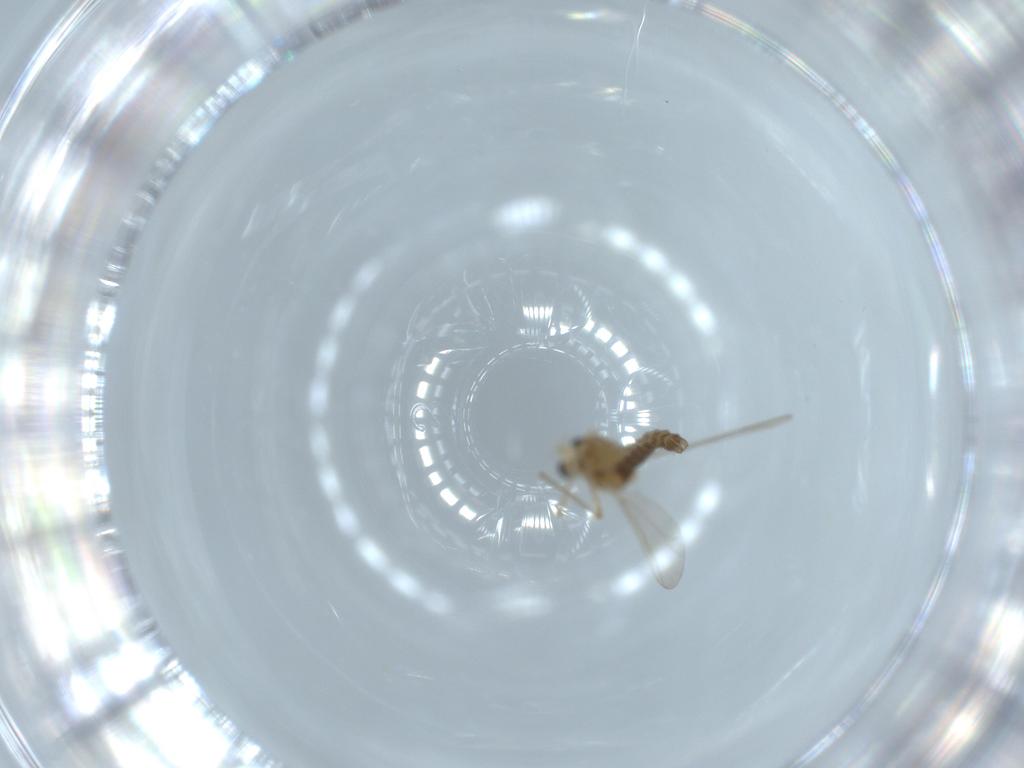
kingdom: Animalia
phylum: Arthropoda
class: Insecta
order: Diptera
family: Chironomidae
